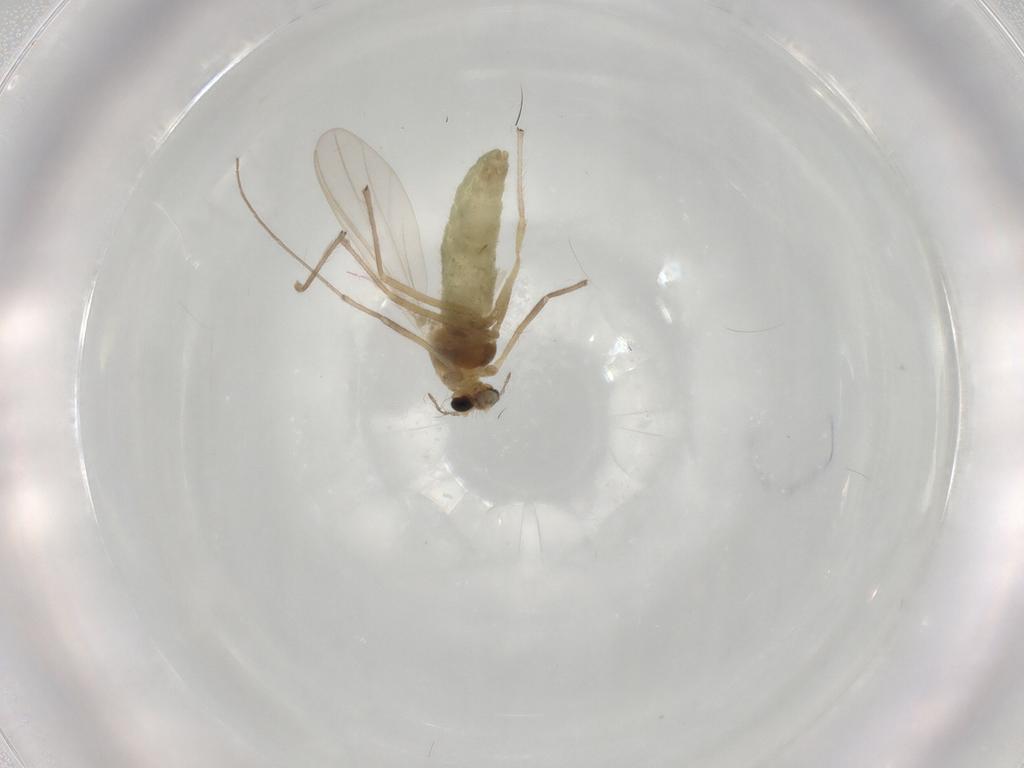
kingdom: Animalia
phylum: Arthropoda
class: Insecta
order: Diptera
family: Chironomidae
